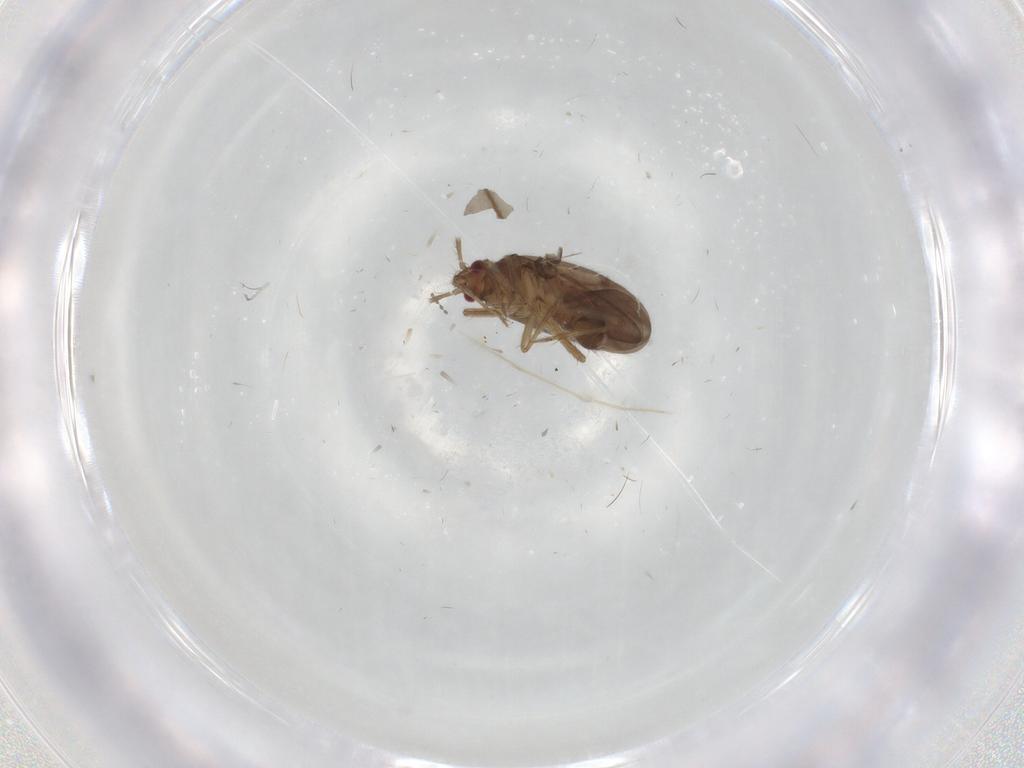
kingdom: Animalia
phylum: Arthropoda
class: Insecta
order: Hemiptera
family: Ceratocombidae
